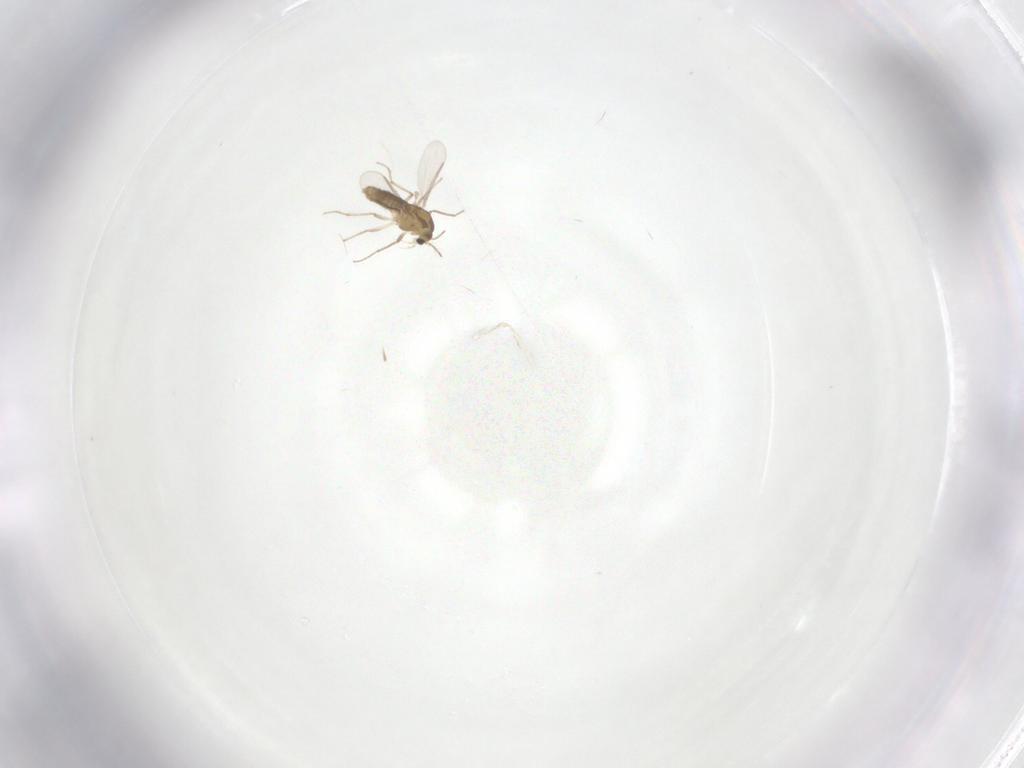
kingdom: Animalia
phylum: Arthropoda
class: Insecta
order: Diptera
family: Chironomidae
